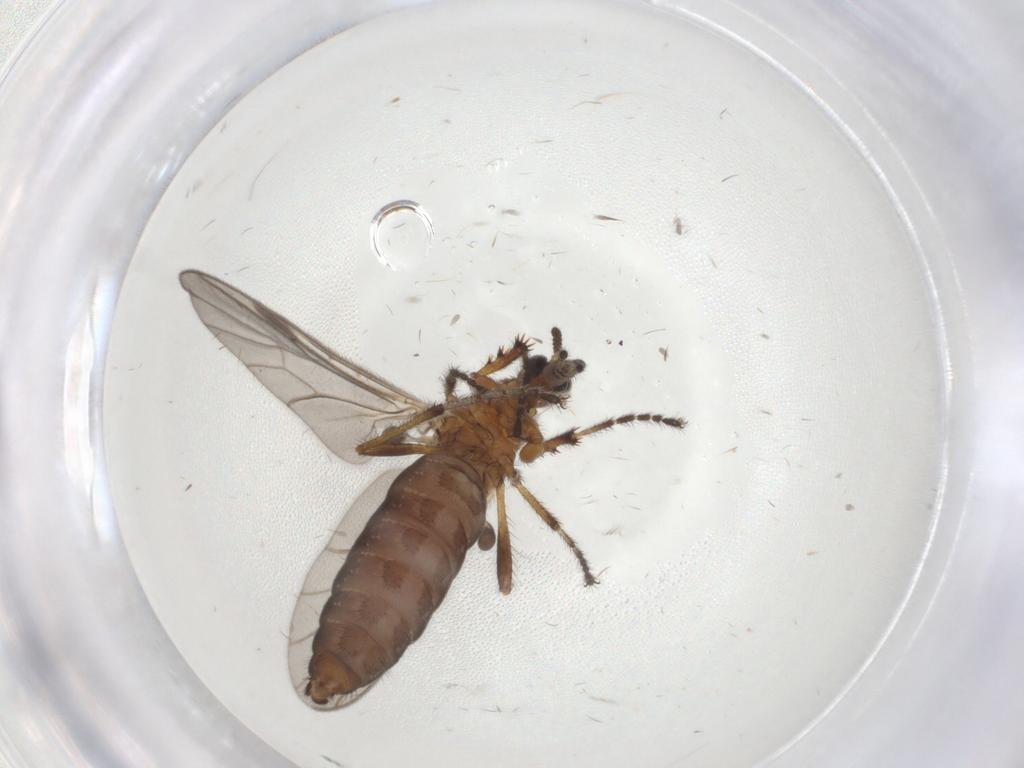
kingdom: Animalia
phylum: Arthropoda
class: Insecta
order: Diptera
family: Bibionidae
